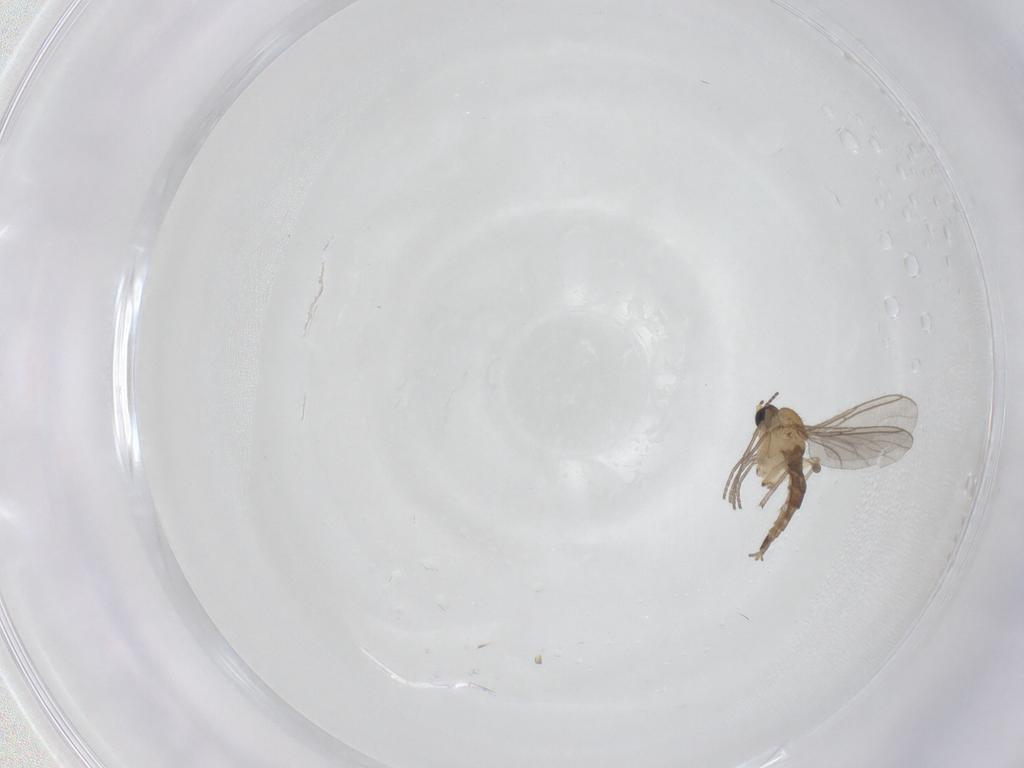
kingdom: Animalia
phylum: Arthropoda
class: Insecta
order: Diptera
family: Sciaridae
